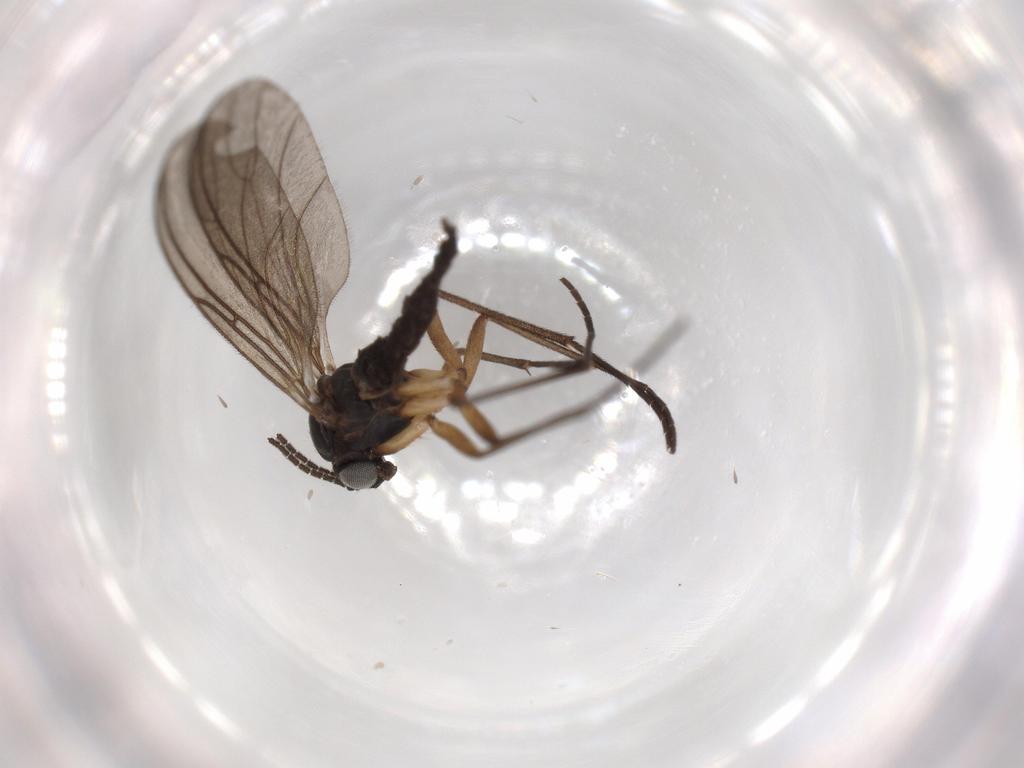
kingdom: Animalia
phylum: Arthropoda
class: Insecta
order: Diptera
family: Sciaridae
